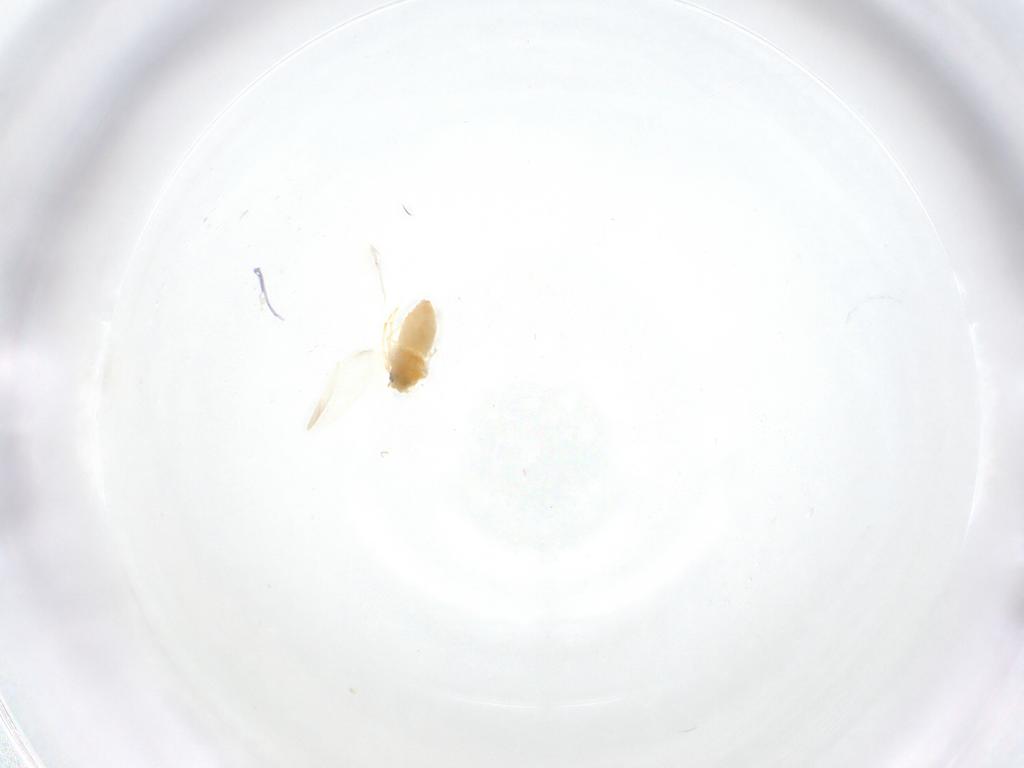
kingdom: Animalia
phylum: Arthropoda
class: Insecta
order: Hemiptera
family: Aleyrodidae
